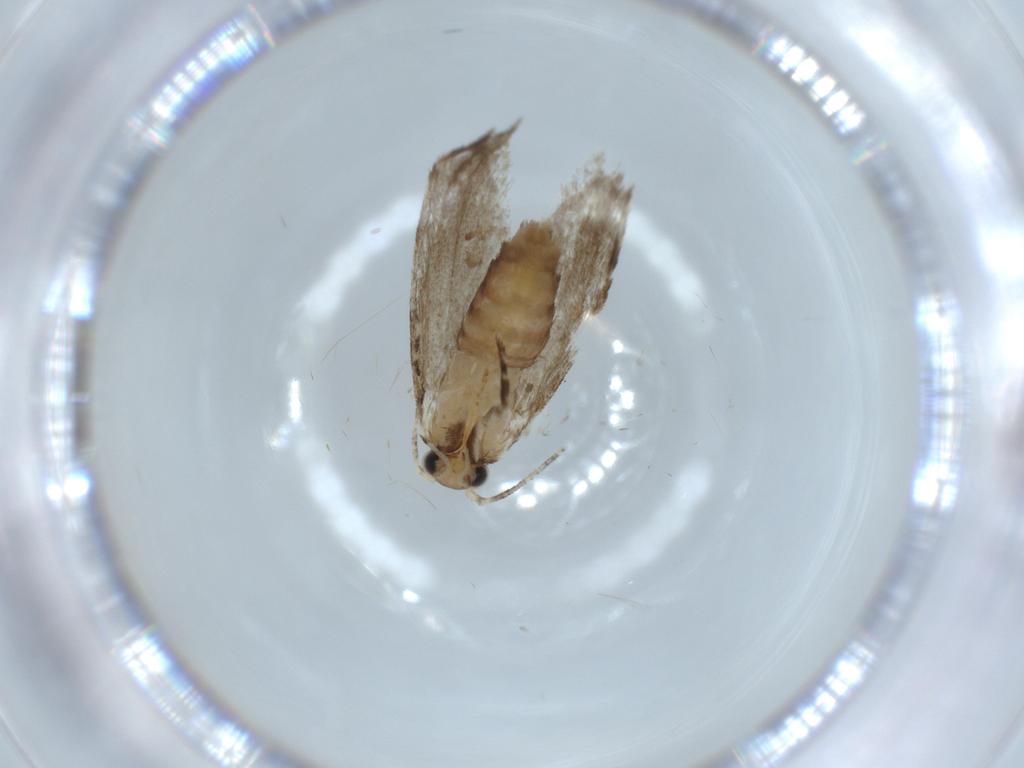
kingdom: Animalia
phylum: Arthropoda
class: Insecta
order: Lepidoptera
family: Tineidae
